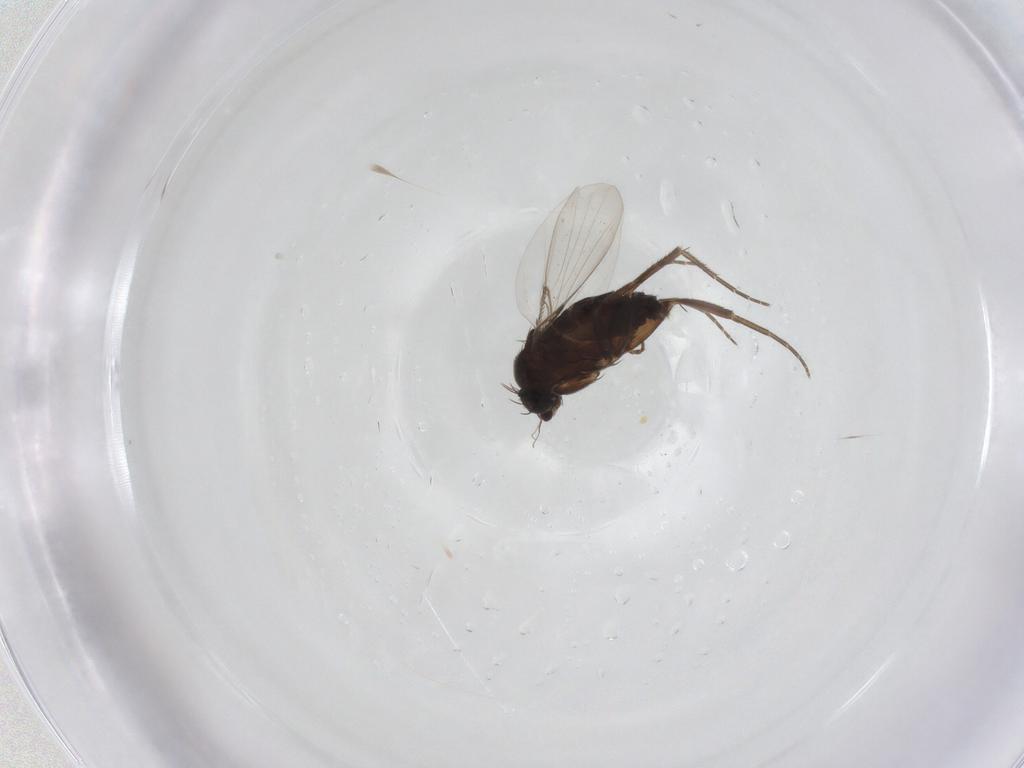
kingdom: Animalia
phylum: Arthropoda
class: Insecta
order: Diptera
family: Phoridae
